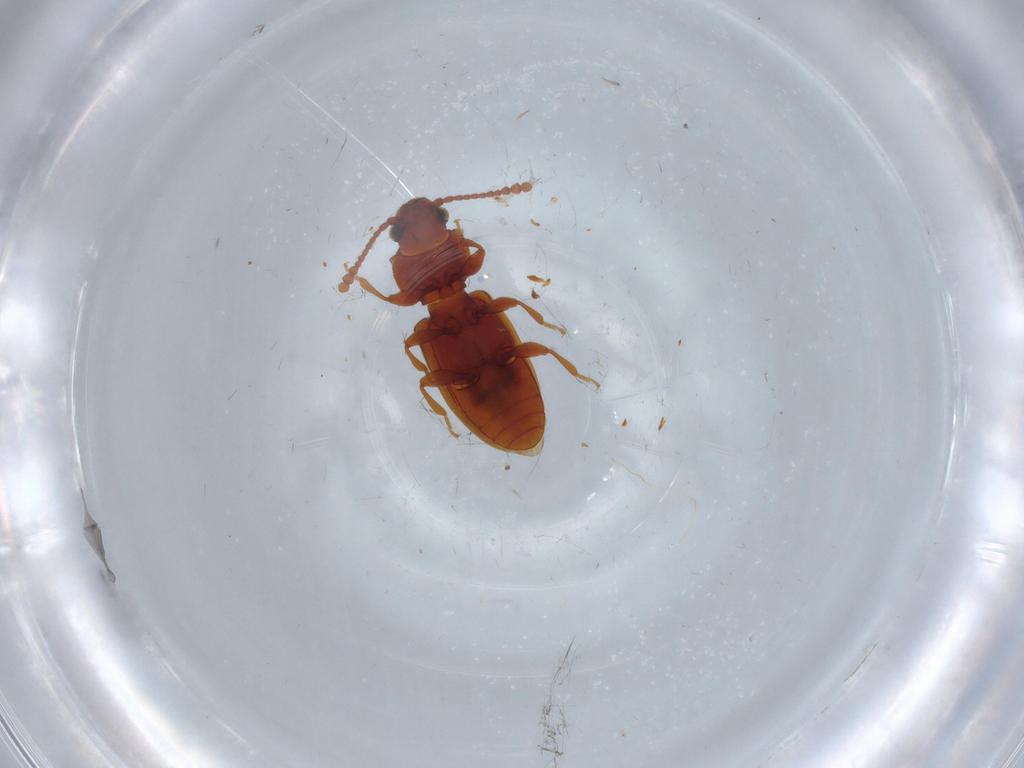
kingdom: Animalia
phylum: Arthropoda
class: Insecta
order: Coleoptera
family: Silvanidae
